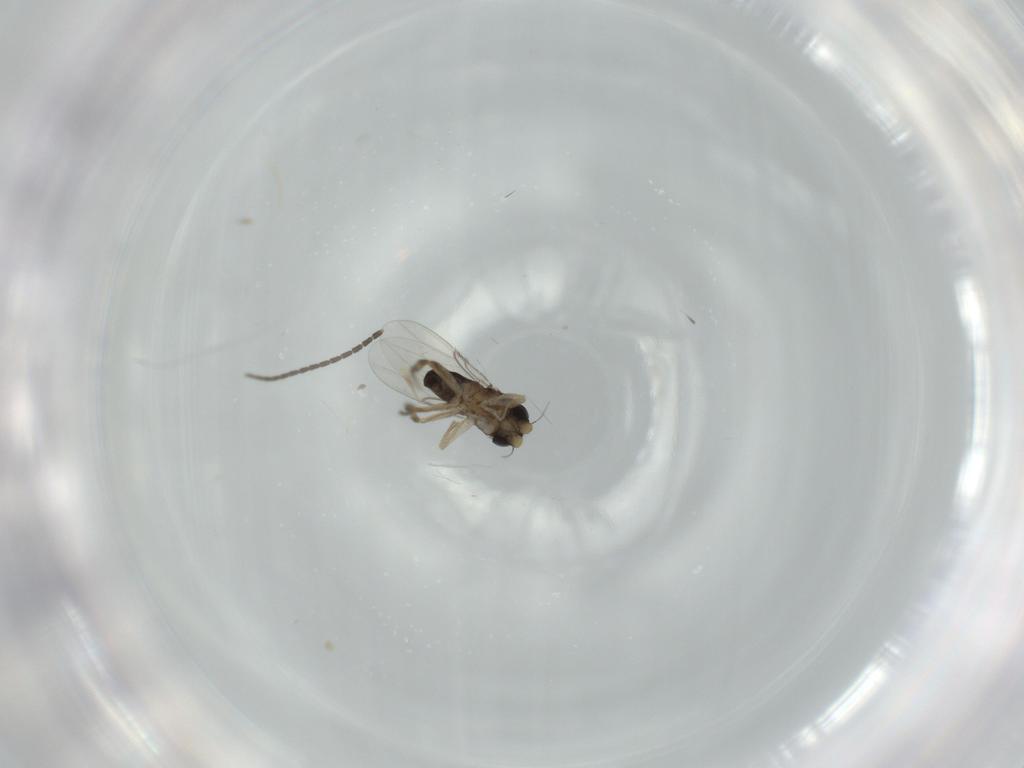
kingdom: Animalia
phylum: Arthropoda
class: Insecta
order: Diptera
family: Phoridae
